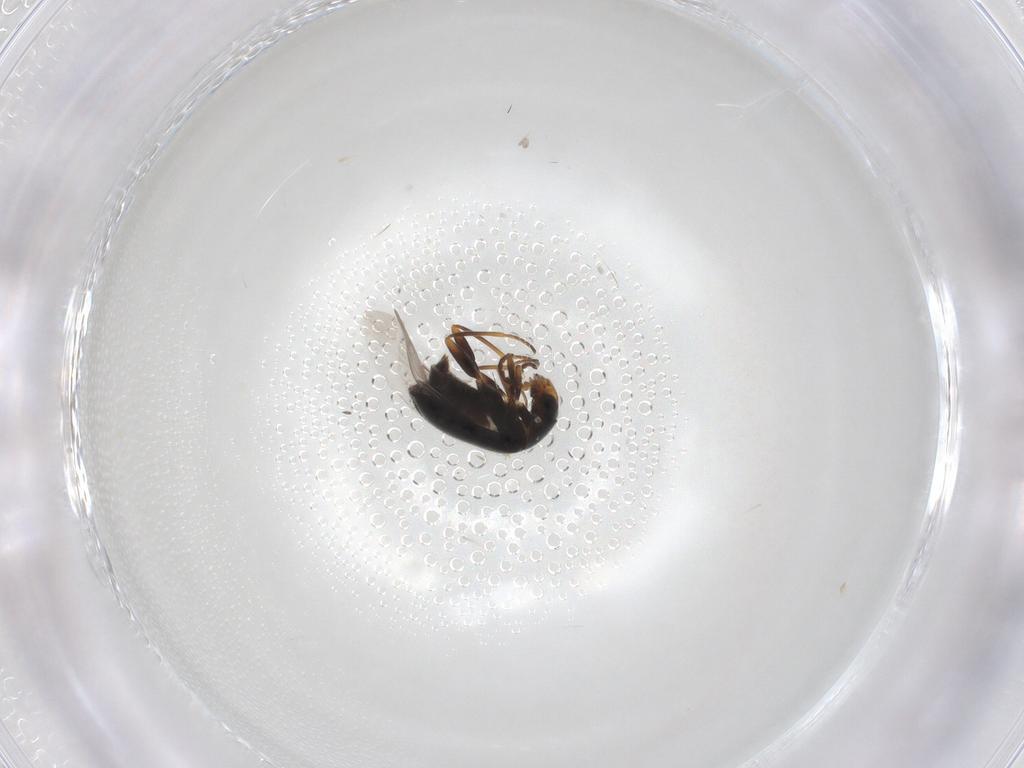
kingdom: Animalia
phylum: Arthropoda
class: Insecta
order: Coleoptera
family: Melyridae
